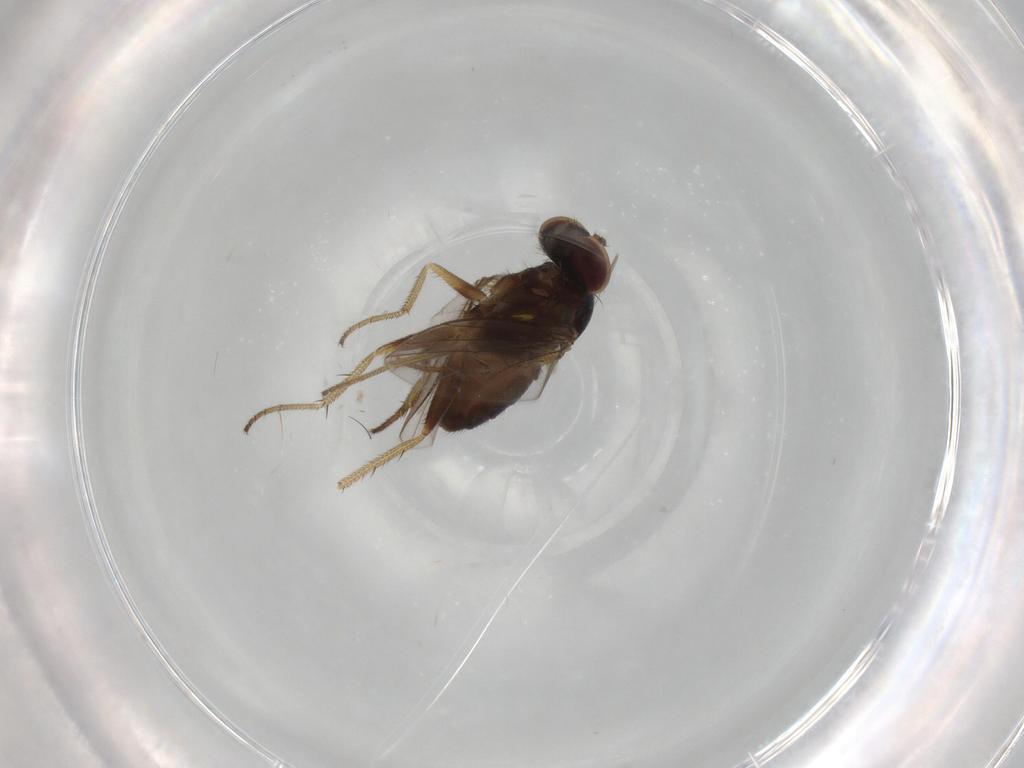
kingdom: Animalia
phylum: Arthropoda
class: Insecta
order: Diptera
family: Dolichopodidae
